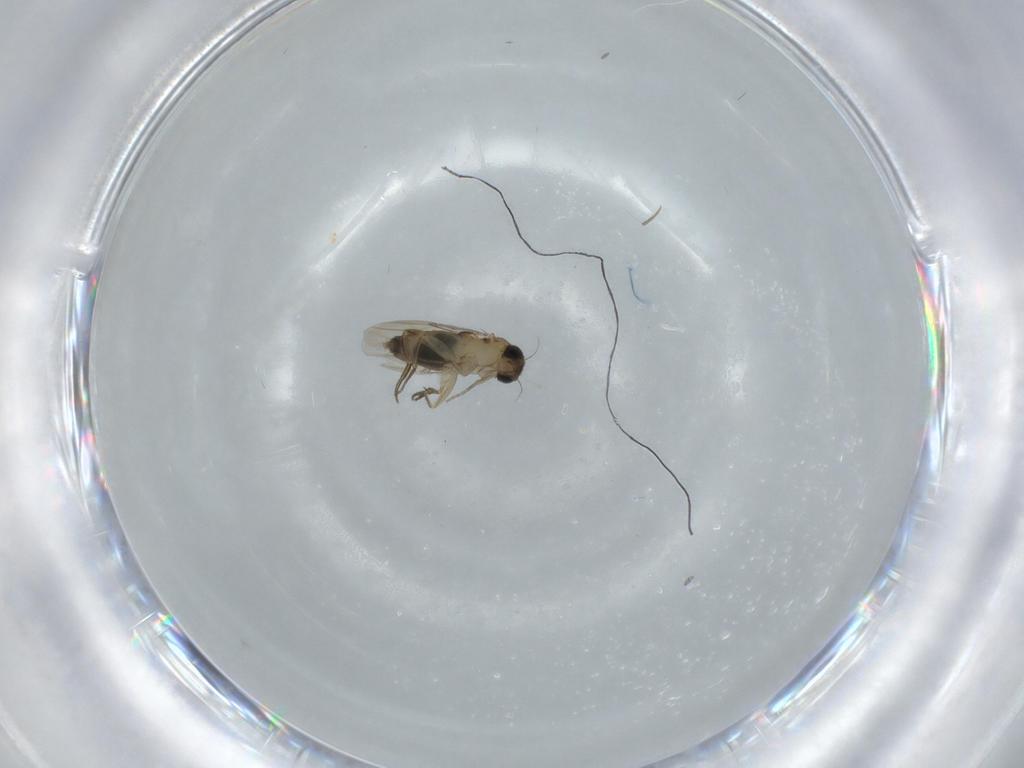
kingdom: Animalia
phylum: Arthropoda
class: Insecta
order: Diptera
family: Phoridae
